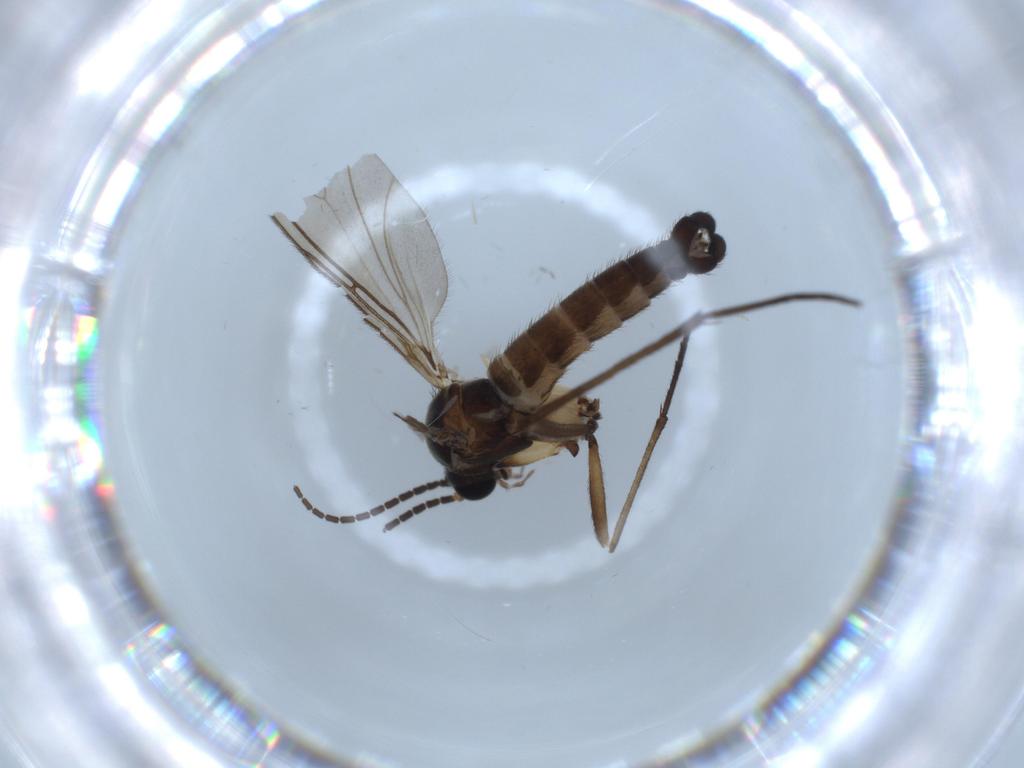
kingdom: Animalia
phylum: Arthropoda
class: Insecta
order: Diptera
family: Sciaridae
